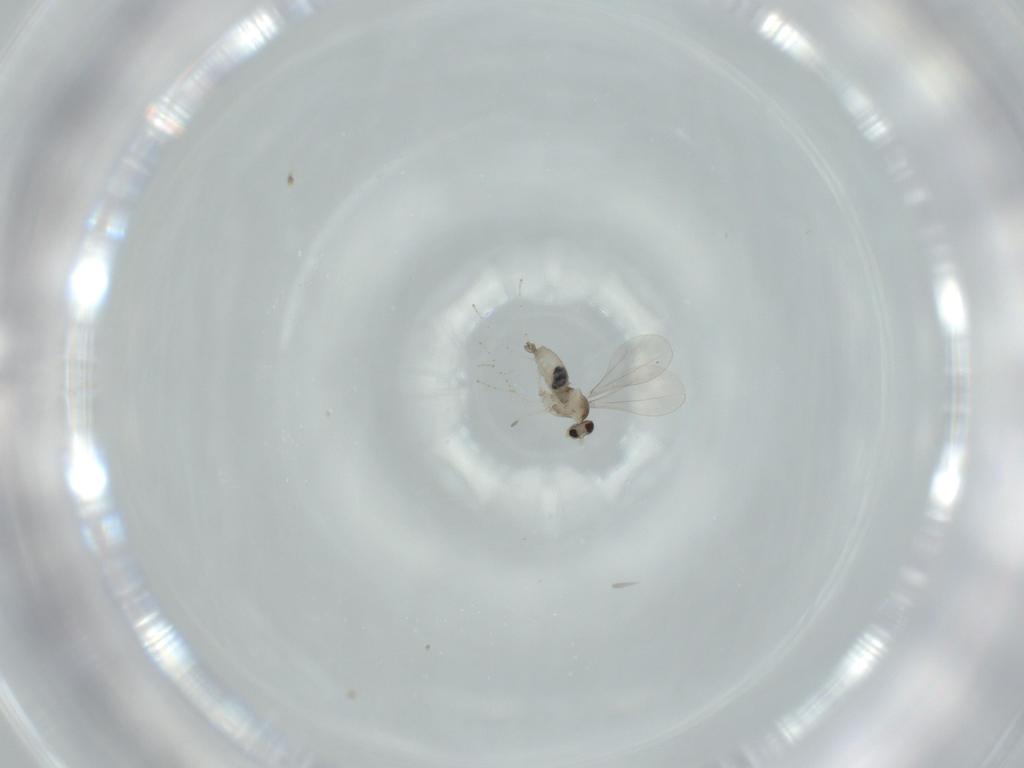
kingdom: Animalia
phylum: Arthropoda
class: Insecta
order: Diptera
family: Cecidomyiidae
